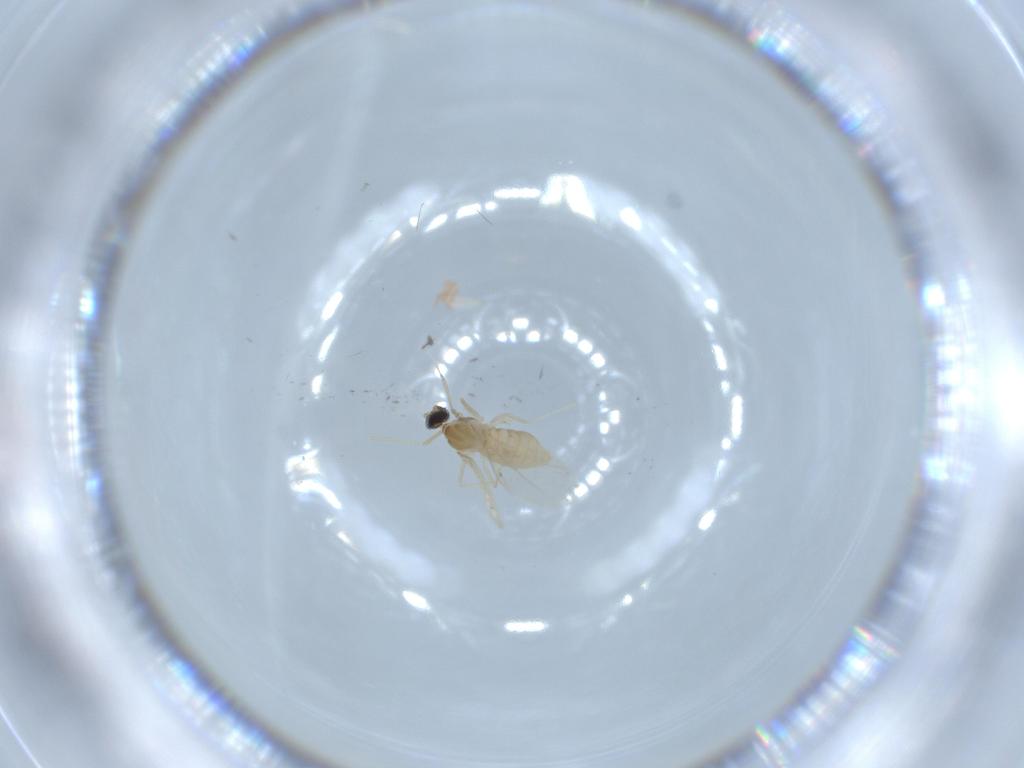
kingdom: Animalia
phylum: Arthropoda
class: Insecta
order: Diptera
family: Cecidomyiidae
